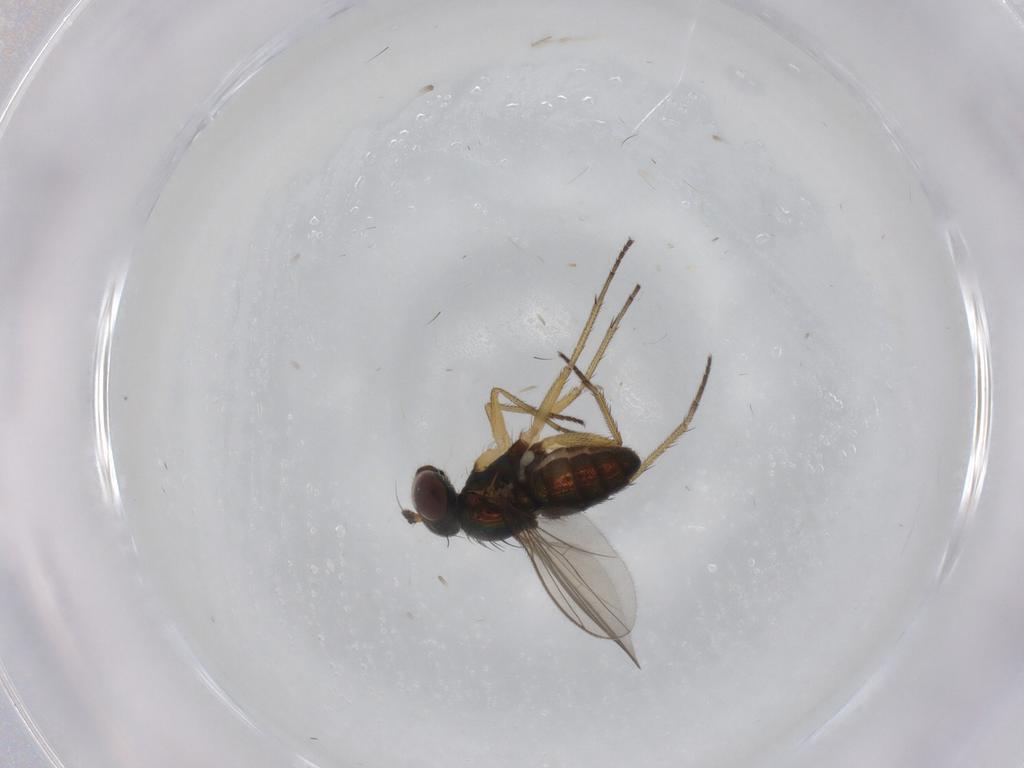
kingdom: Animalia
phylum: Arthropoda
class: Insecta
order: Diptera
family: Dolichopodidae
